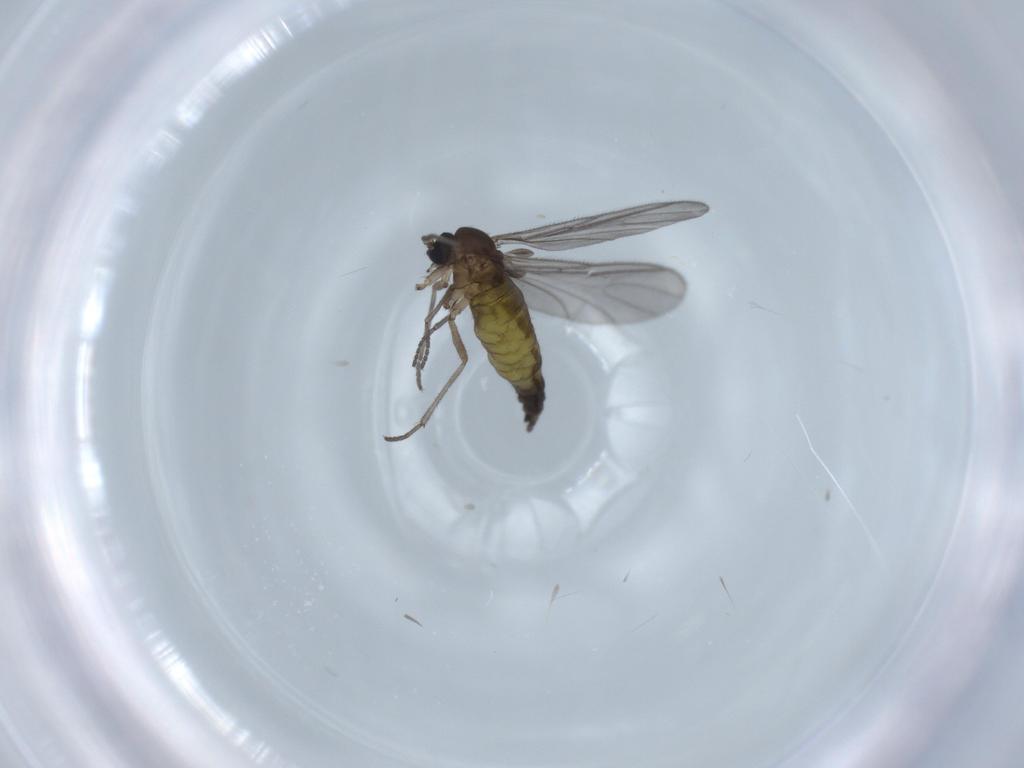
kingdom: Animalia
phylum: Arthropoda
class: Insecta
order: Diptera
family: Sciaridae
